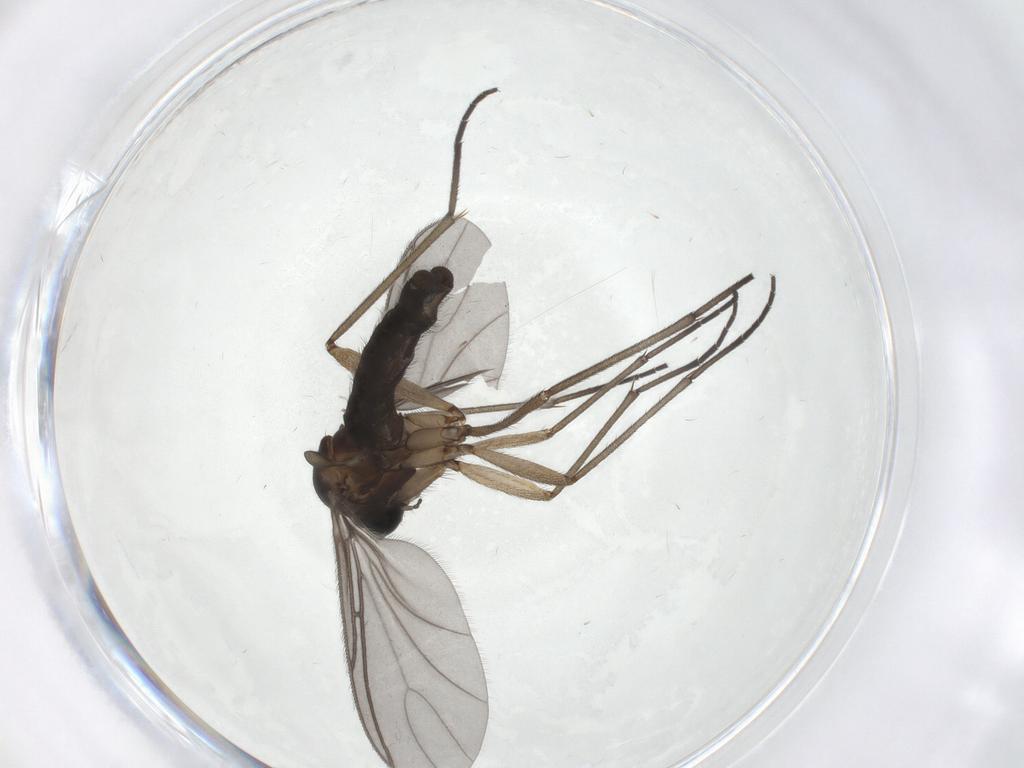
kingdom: Animalia
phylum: Arthropoda
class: Insecta
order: Diptera
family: Sciaridae
